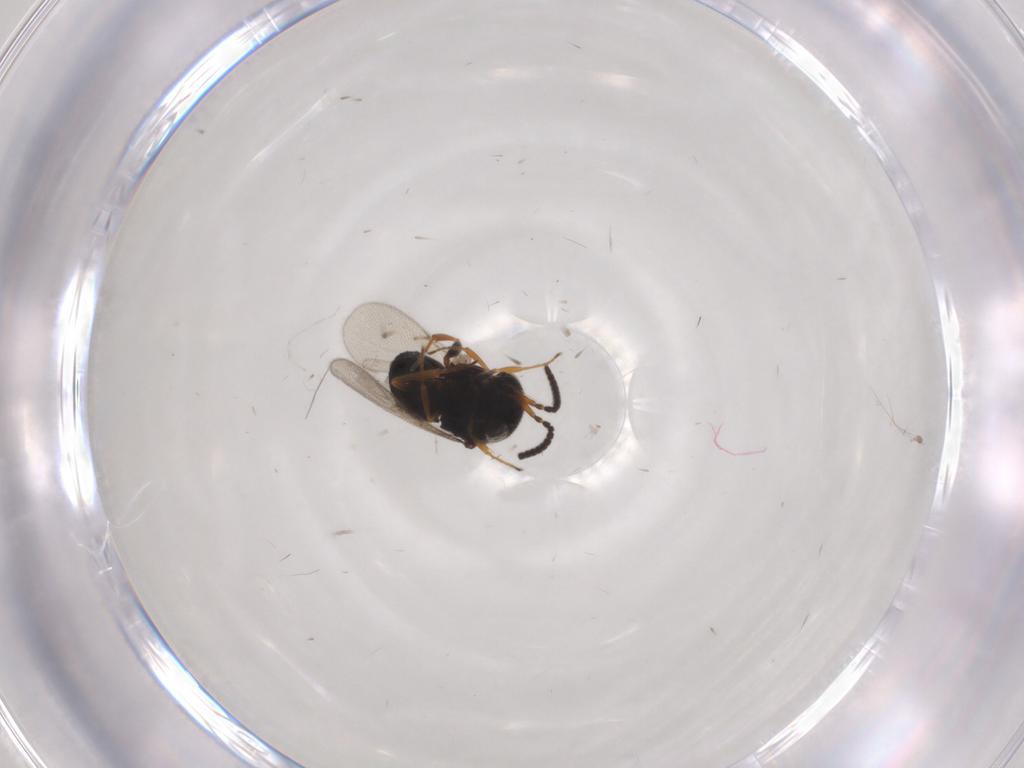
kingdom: Animalia
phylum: Arthropoda
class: Insecta
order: Hymenoptera
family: Scelionidae
